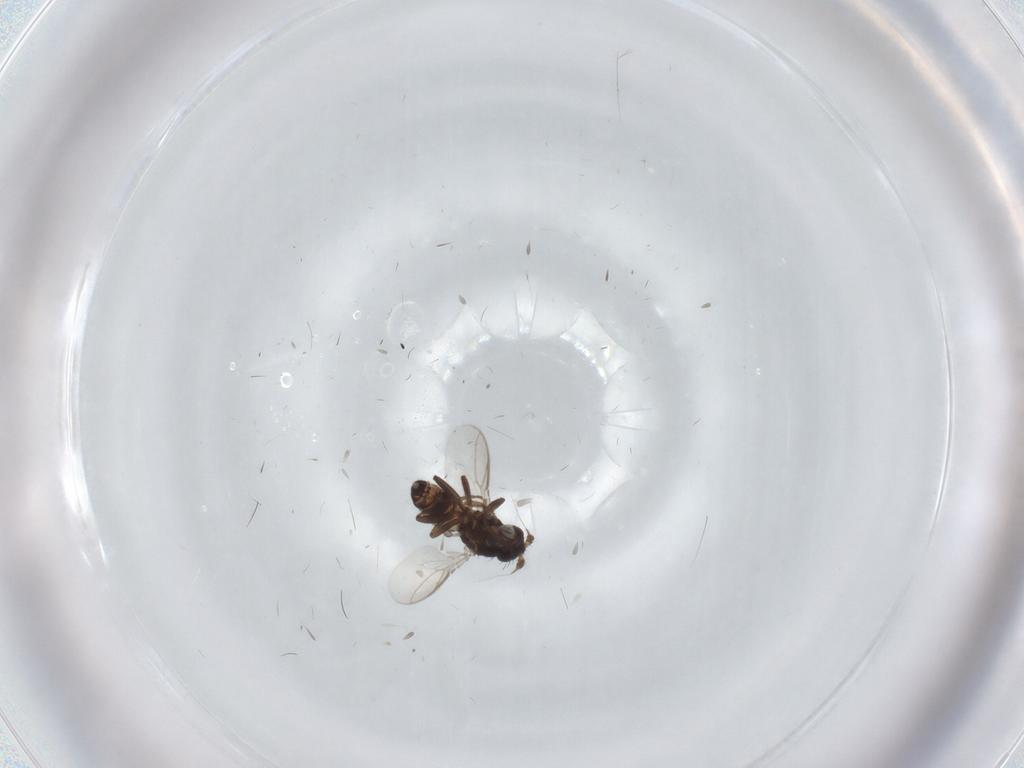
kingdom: Animalia
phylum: Arthropoda
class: Insecta
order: Diptera
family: Sphaeroceridae
